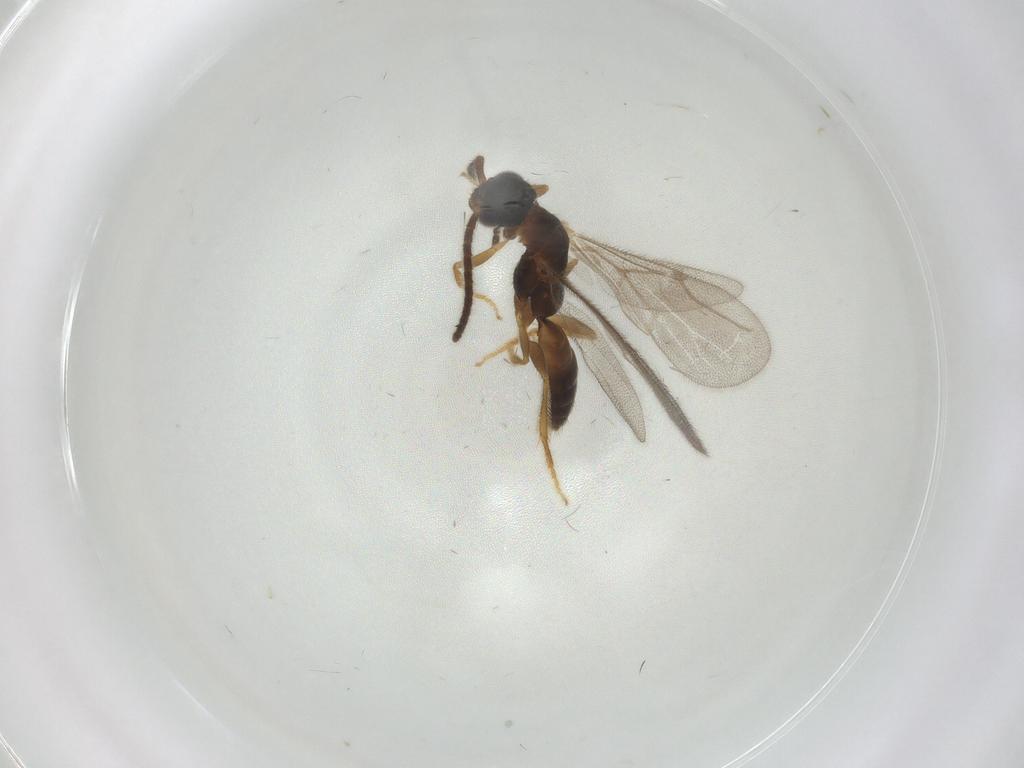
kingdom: Animalia
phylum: Arthropoda
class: Insecta
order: Hymenoptera
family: Bethylidae
